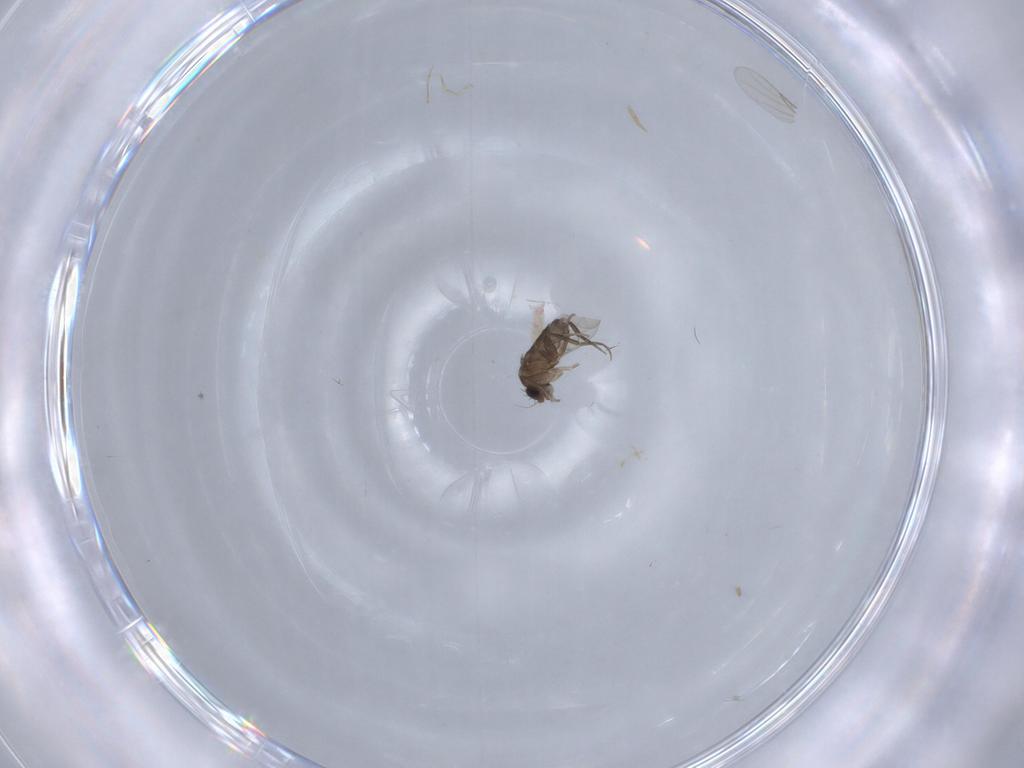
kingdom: Animalia
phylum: Arthropoda
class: Insecta
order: Diptera
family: Phoridae
